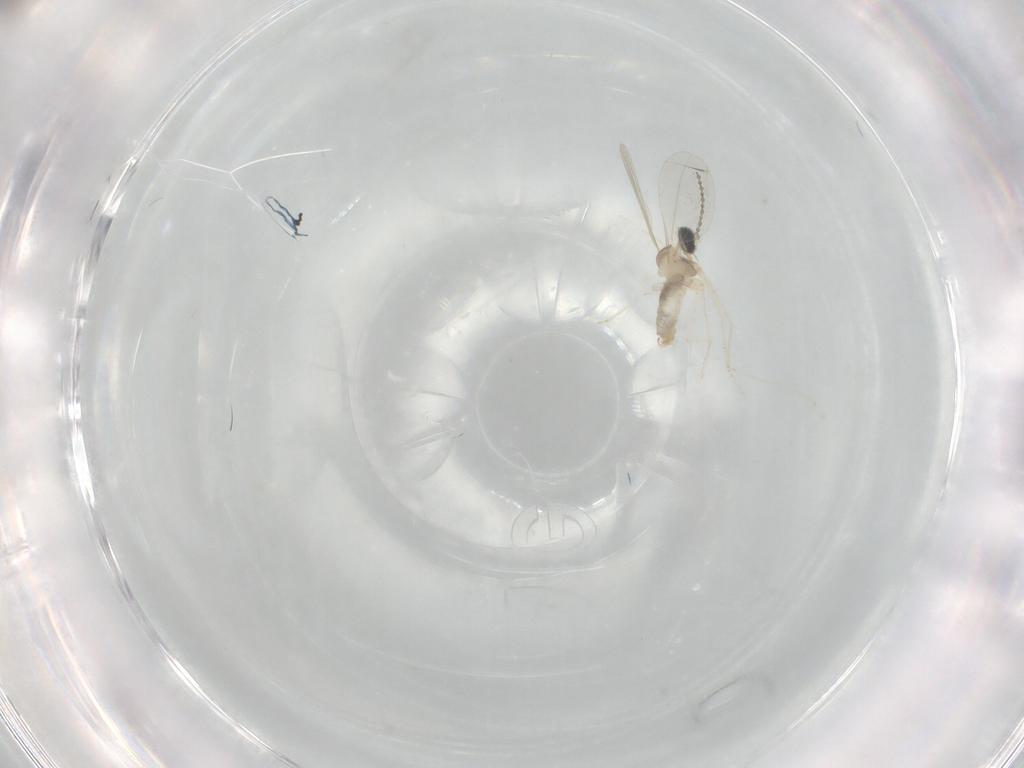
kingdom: Animalia
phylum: Arthropoda
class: Insecta
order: Diptera
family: Cecidomyiidae
